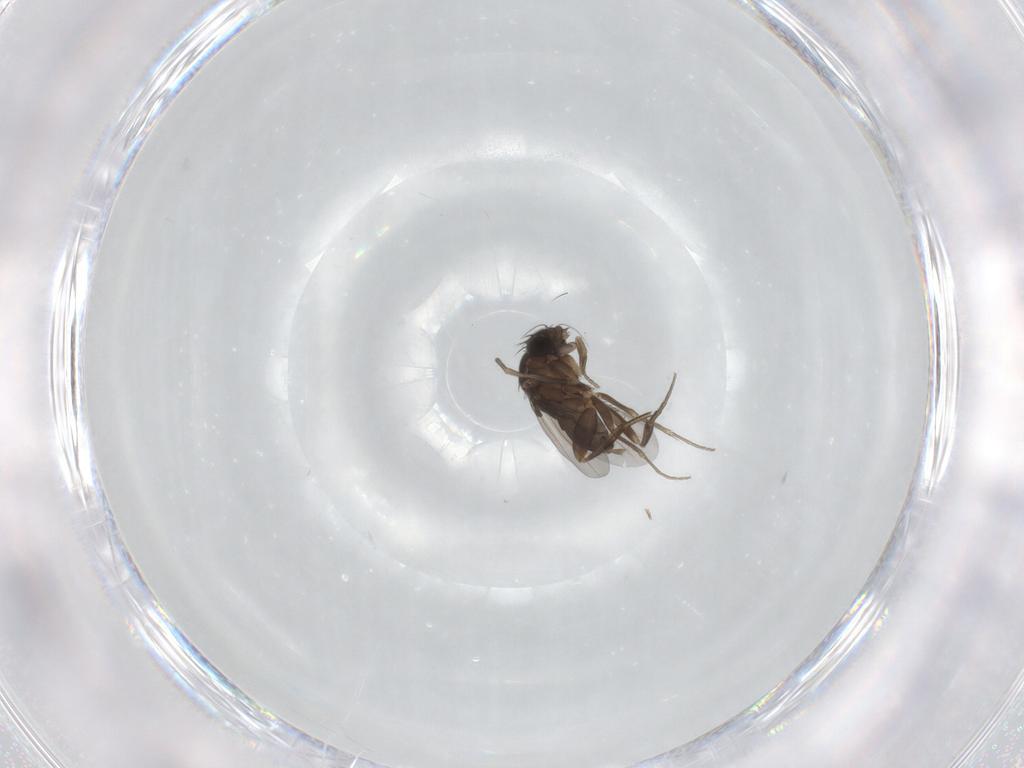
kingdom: Animalia
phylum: Arthropoda
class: Insecta
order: Diptera
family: Phoridae
